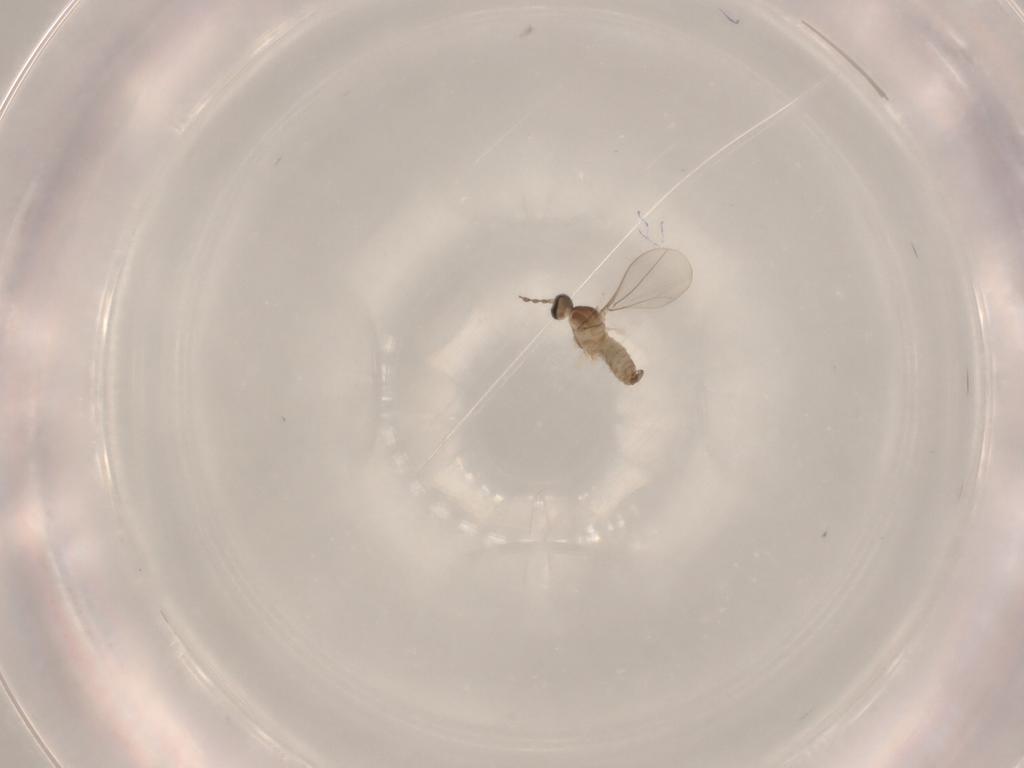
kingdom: Animalia
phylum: Arthropoda
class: Insecta
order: Diptera
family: Cecidomyiidae
